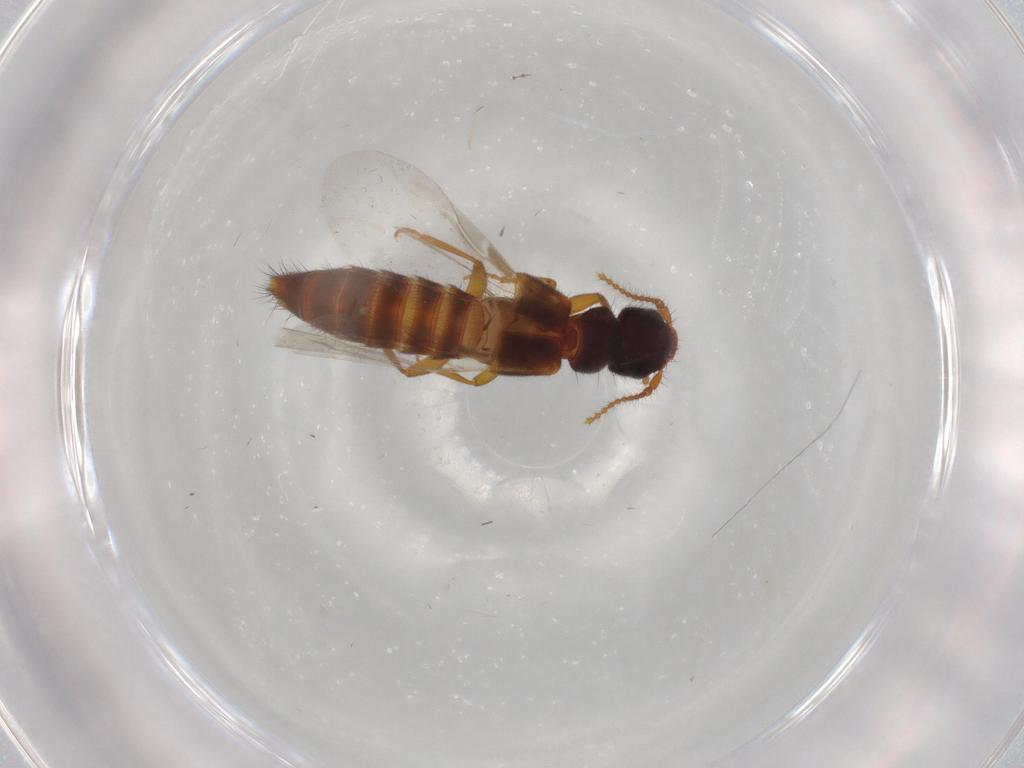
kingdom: Animalia
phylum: Arthropoda
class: Insecta
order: Coleoptera
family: Staphylinidae
